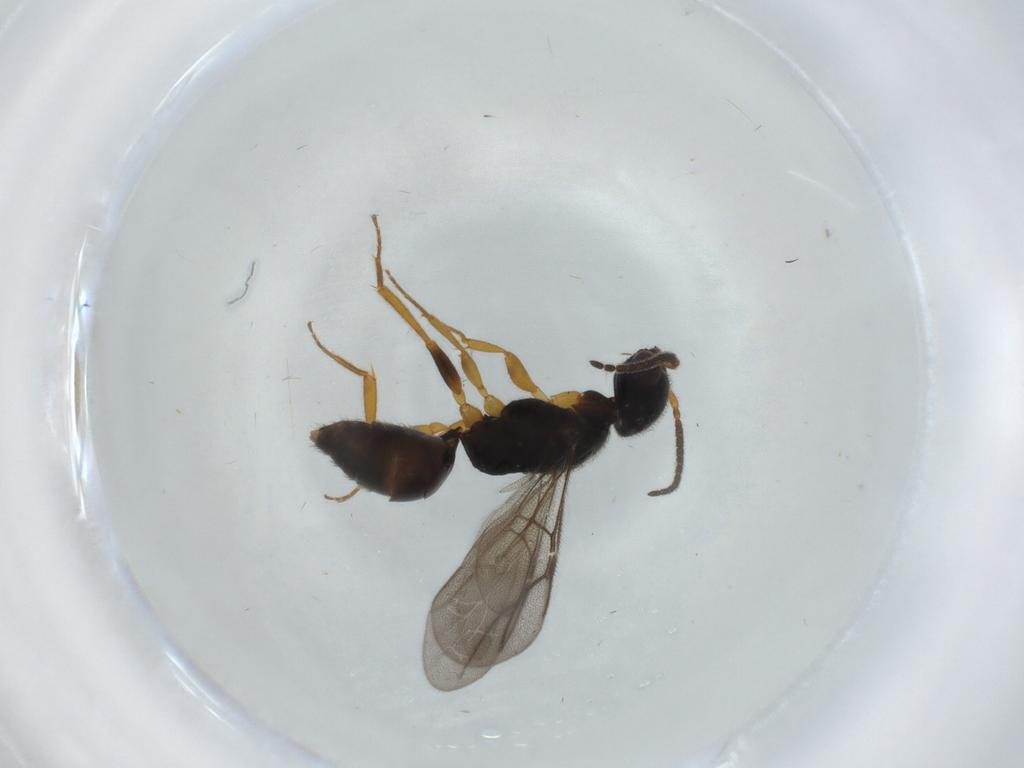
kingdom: Animalia
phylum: Arthropoda
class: Insecta
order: Hymenoptera
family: Bethylidae
